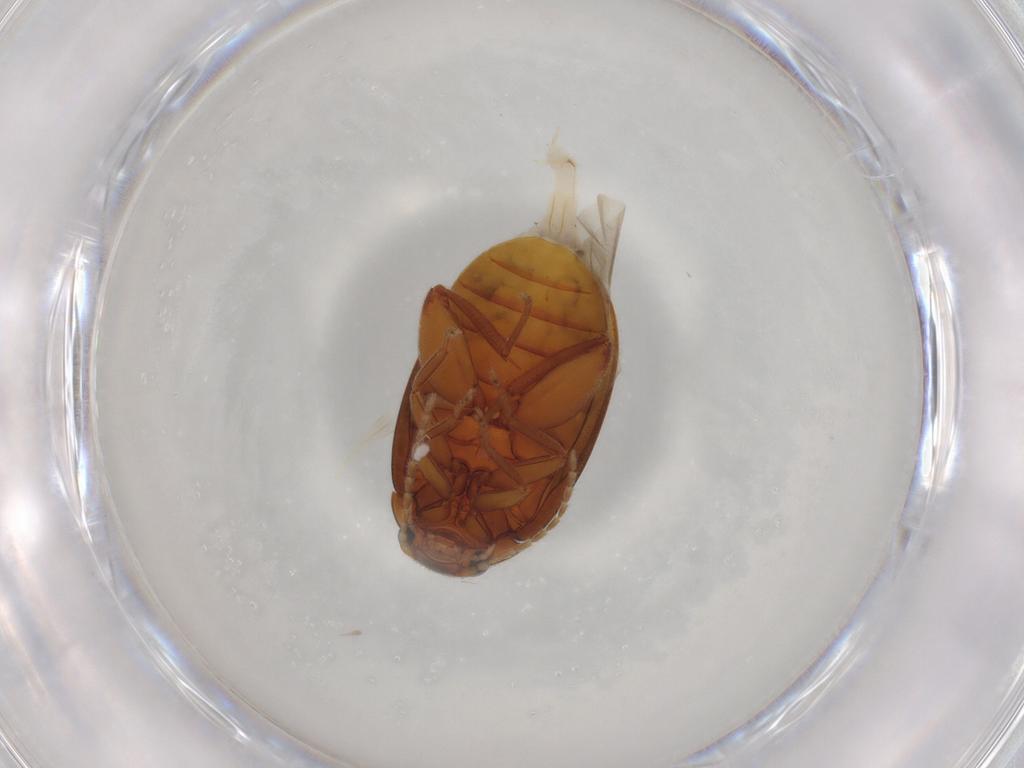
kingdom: Animalia
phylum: Arthropoda
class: Insecta
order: Coleoptera
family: Scirtidae
